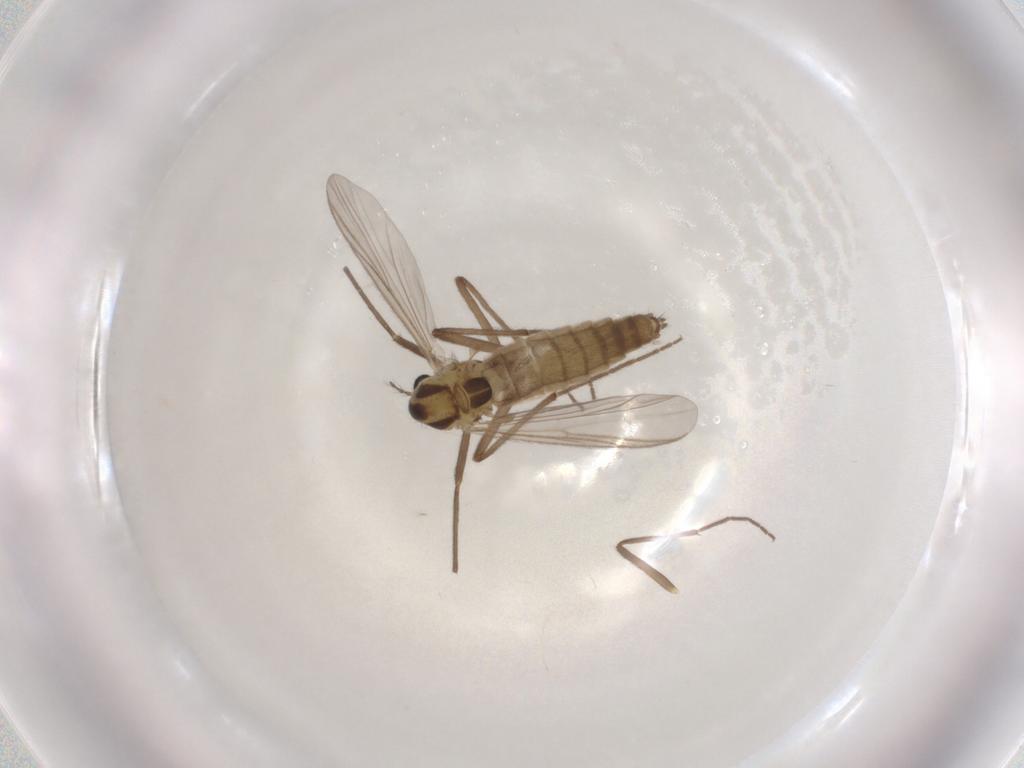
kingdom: Animalia
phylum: Arthropoda
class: Insecta
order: Diptera
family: Chironomidae
